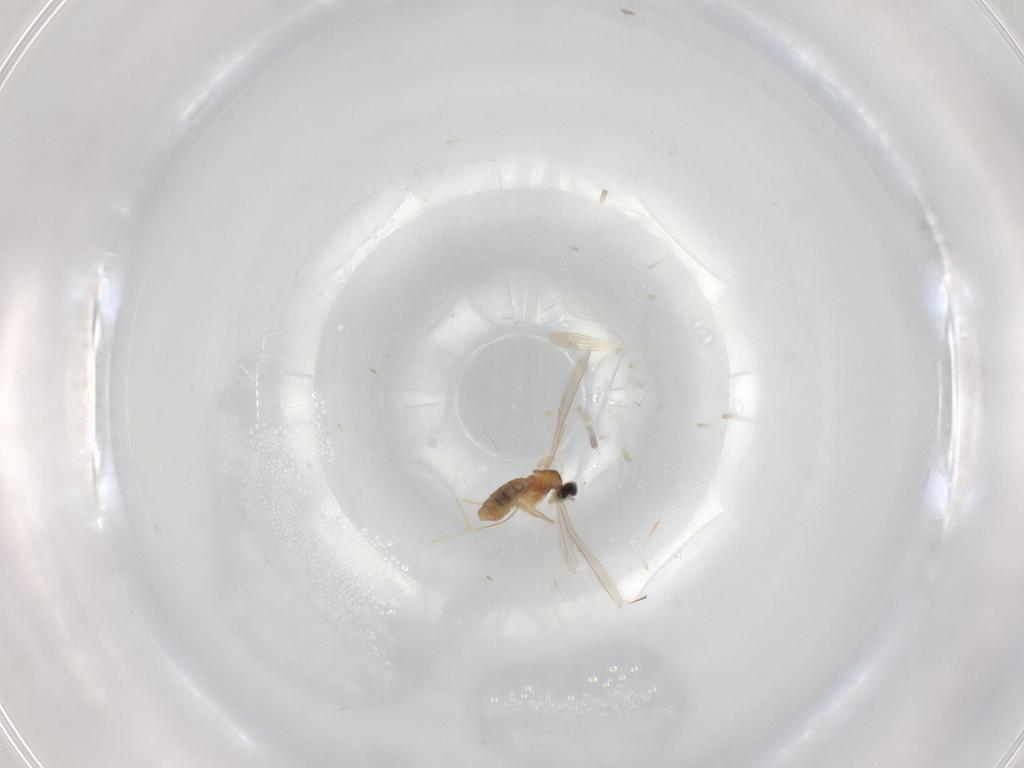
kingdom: Animalia
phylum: Arthropoda
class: Insecta
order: Diptera
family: Cecidomyiidae
